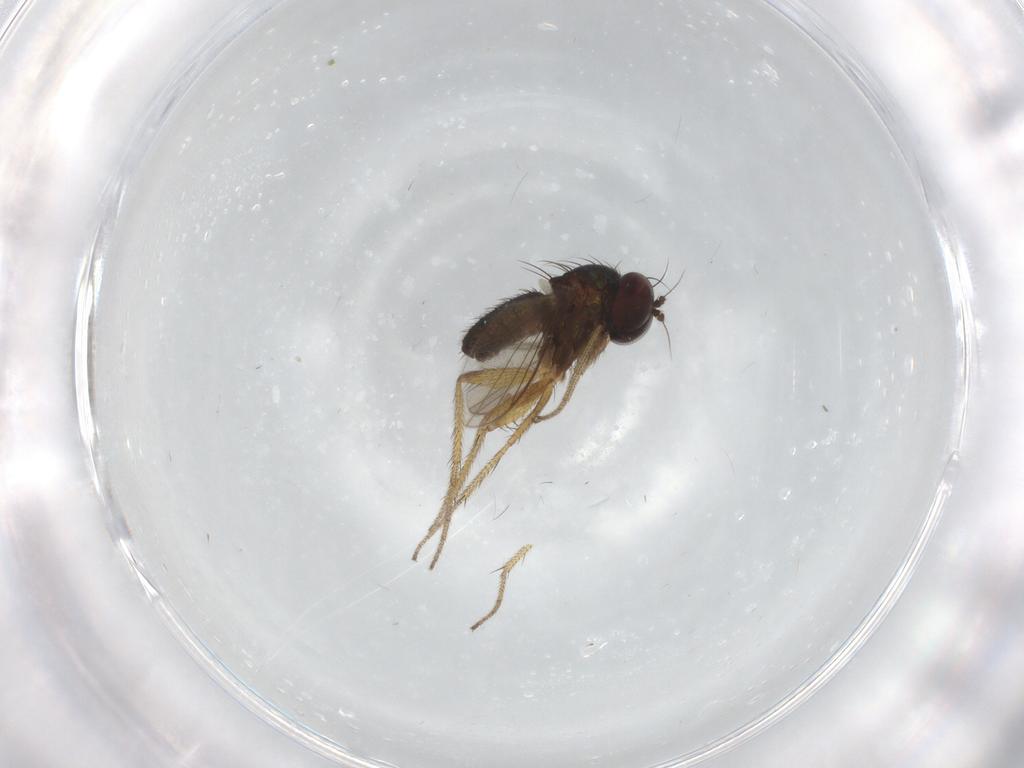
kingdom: Animalia
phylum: Arthropoda
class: Insecta
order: Diptera
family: Dolichopodidae
